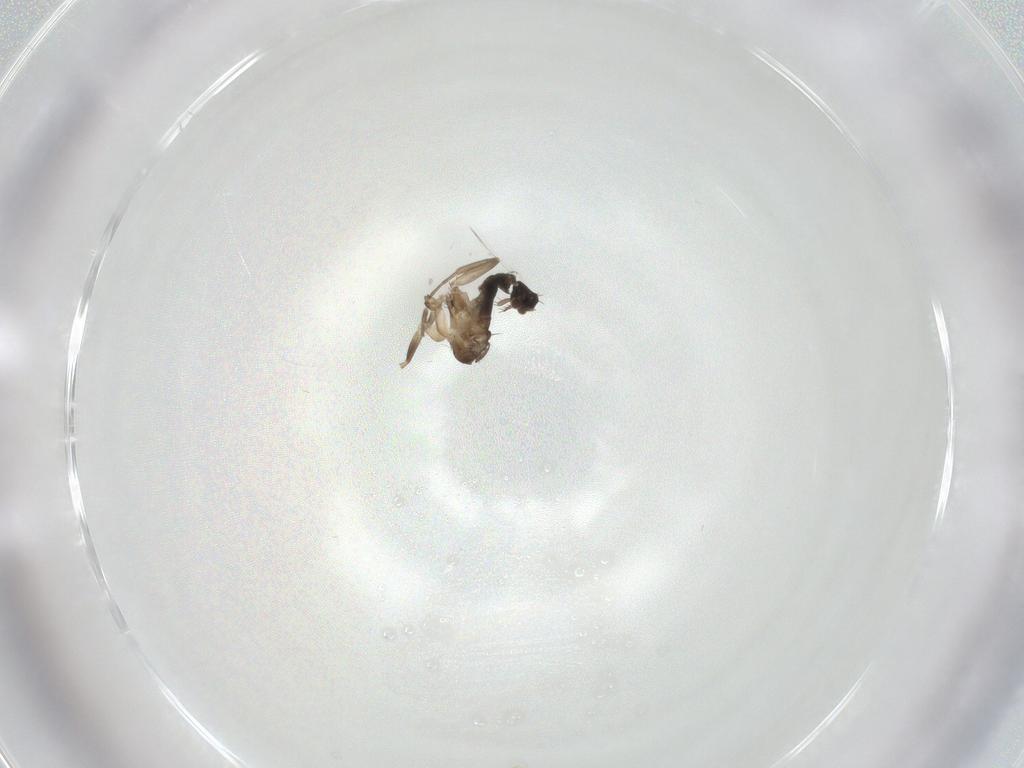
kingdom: Animalia
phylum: Arthropoda
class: Insecta
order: Diptera
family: Phoridae
